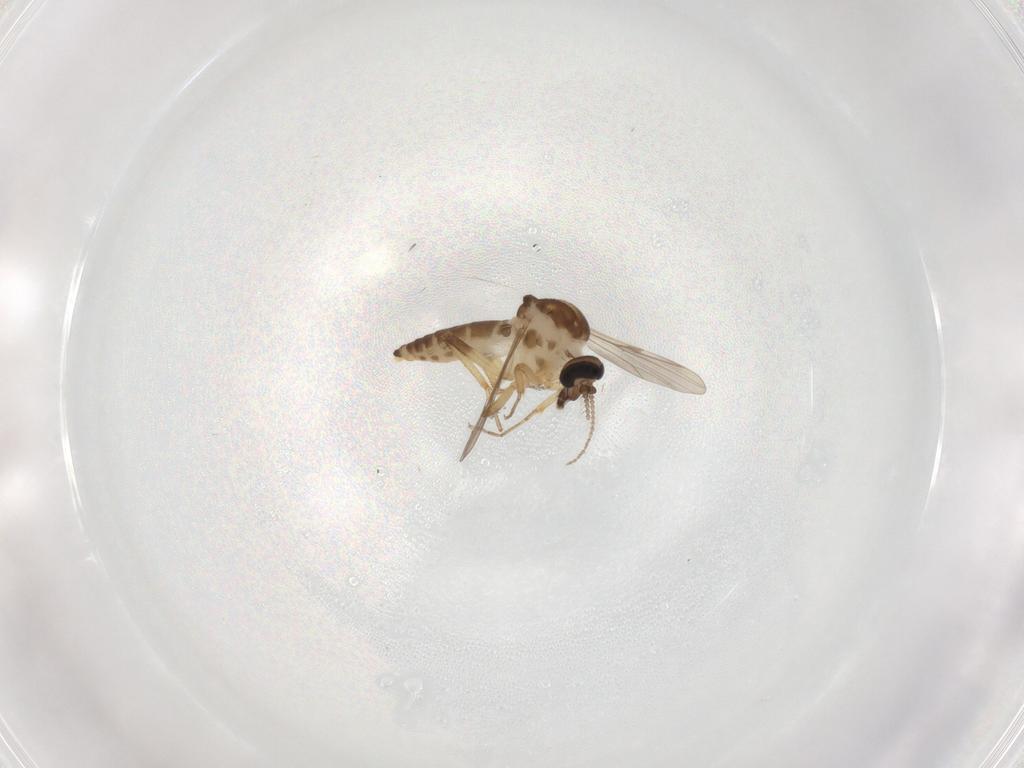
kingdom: Animalia
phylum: Arthropoda
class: Insecta
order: Diptera
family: Ceratopogonidae
